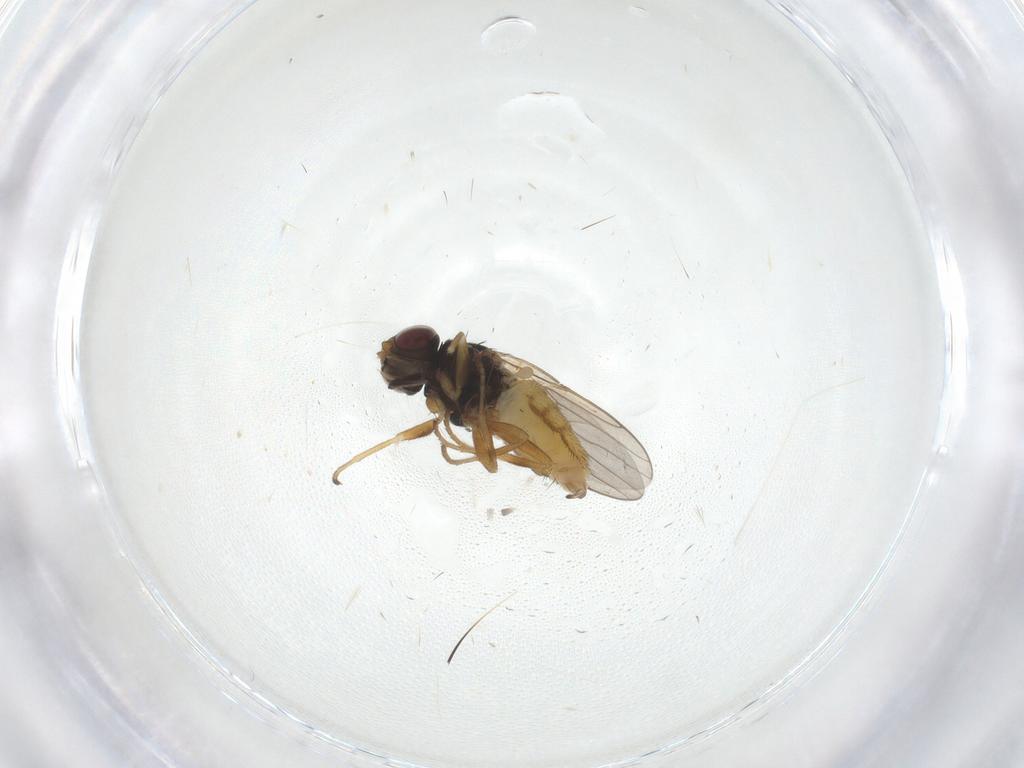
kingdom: Animalia
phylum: Arthropoda
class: Insecta
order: Diptera
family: Chloropidae
